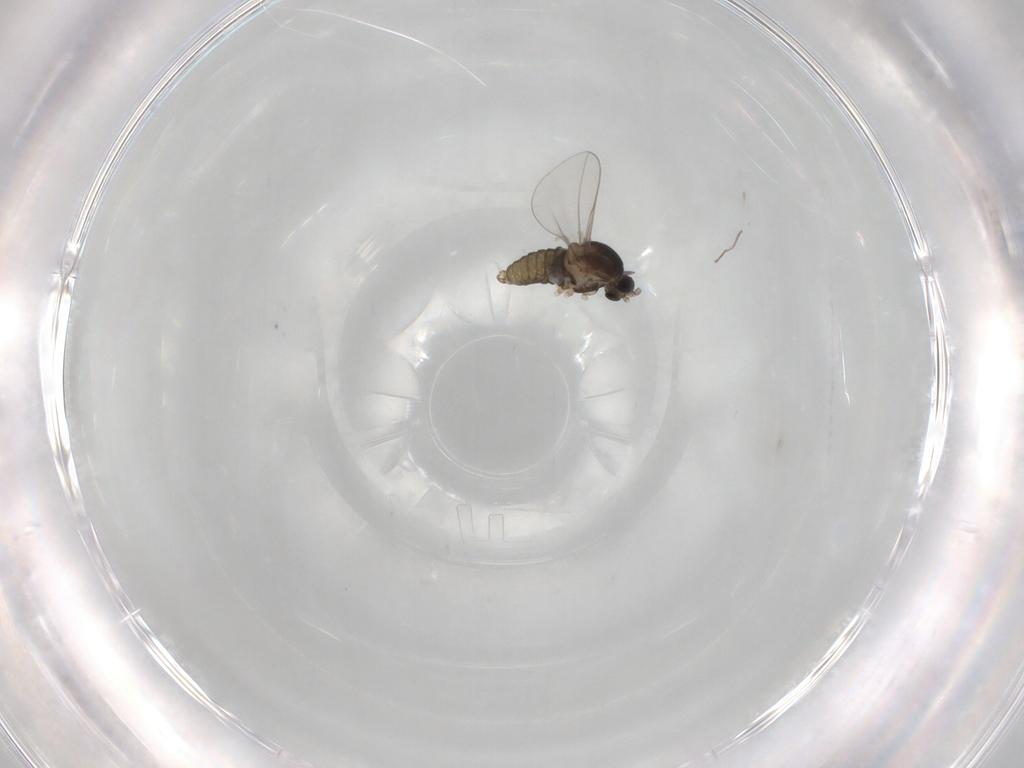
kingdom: Animalia
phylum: Arthropoda
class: Insecta
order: Diptera
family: Cecidomyiidae
